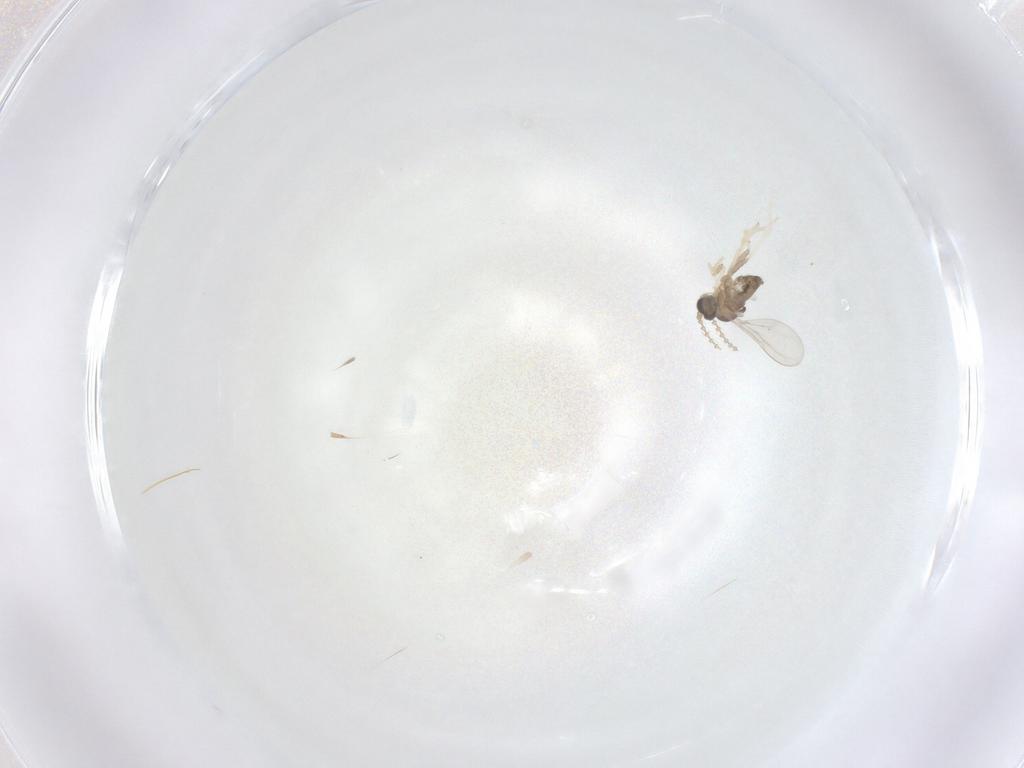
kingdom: Animalia
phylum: Arthropoda
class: Insecta
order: Diptera
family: Cecidomyiidae
